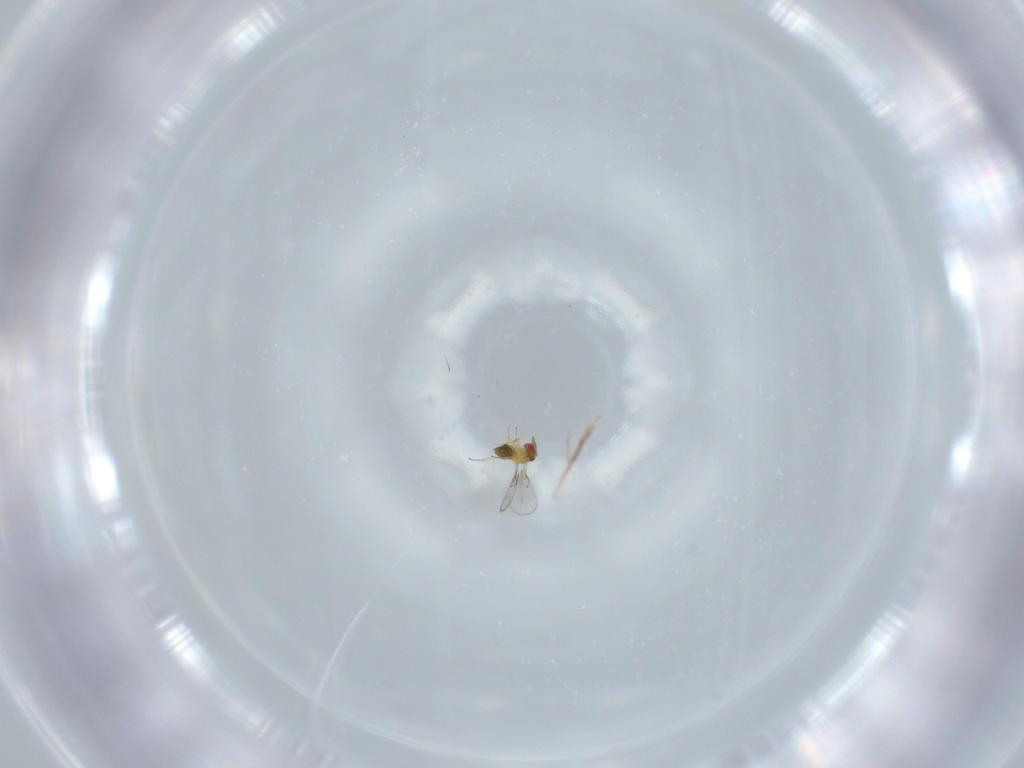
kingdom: Animalia
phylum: Arthropoda
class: Insecta
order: Hymenoptera
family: Trichogrammatidae
